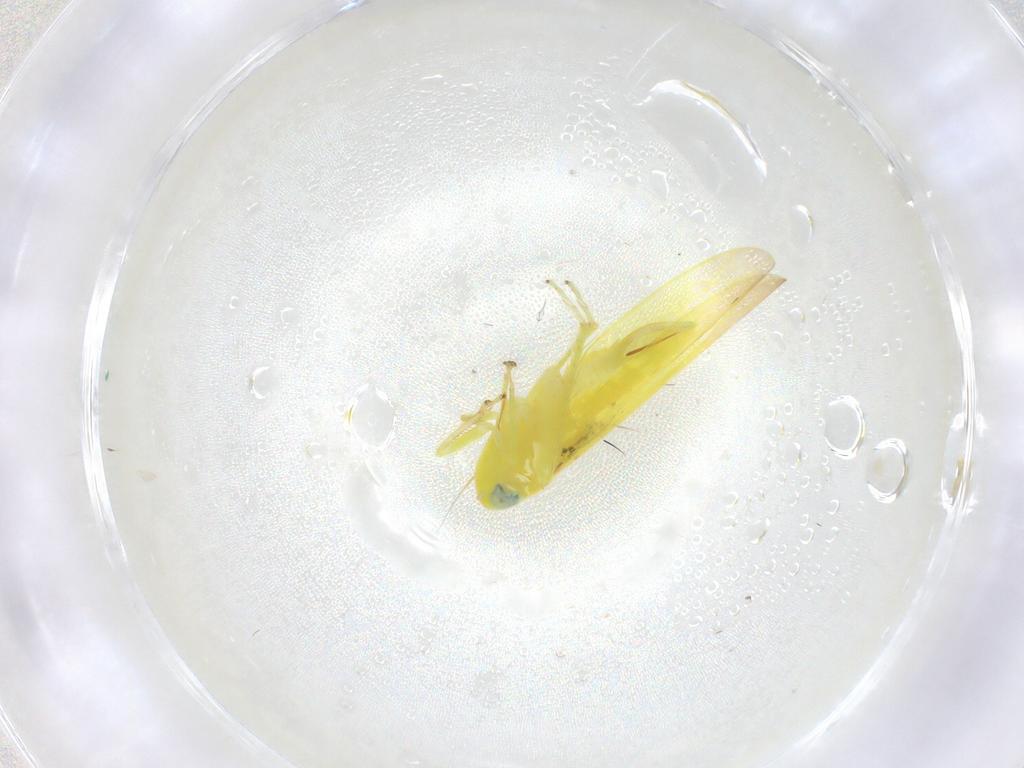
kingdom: Animalia
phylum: Arthropoda
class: Insecta
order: Hemiptera
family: Cicadellidae
